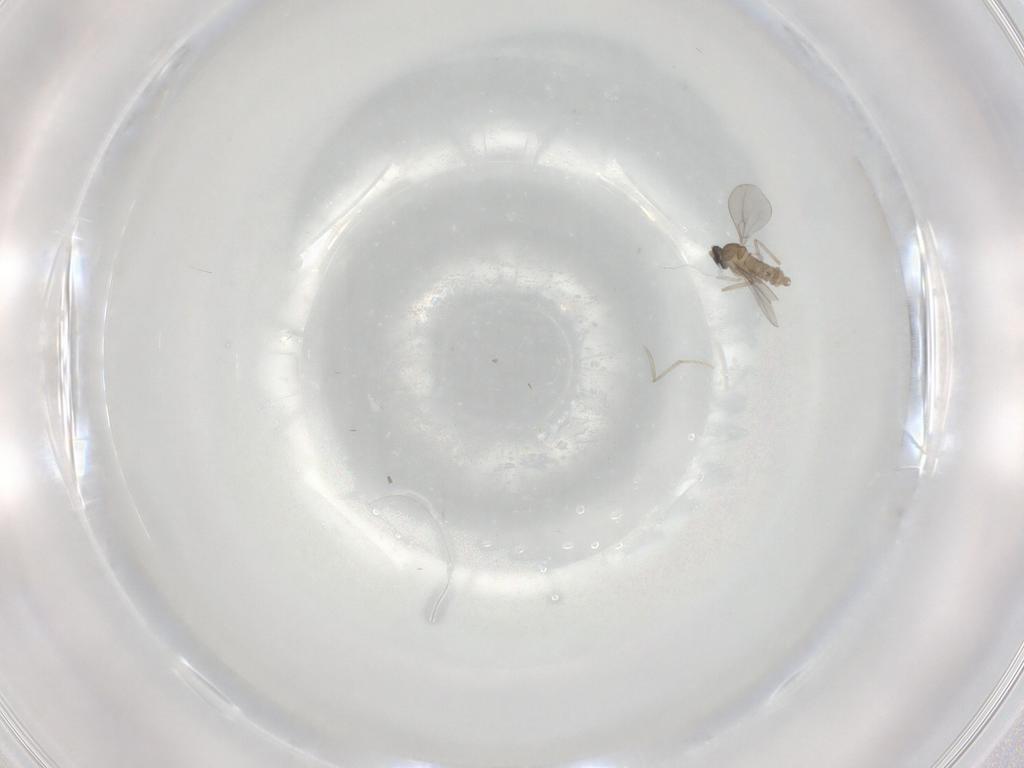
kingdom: Animalia
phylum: Arthropoda
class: Insecta
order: Diptera
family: Cecidomyiidae
